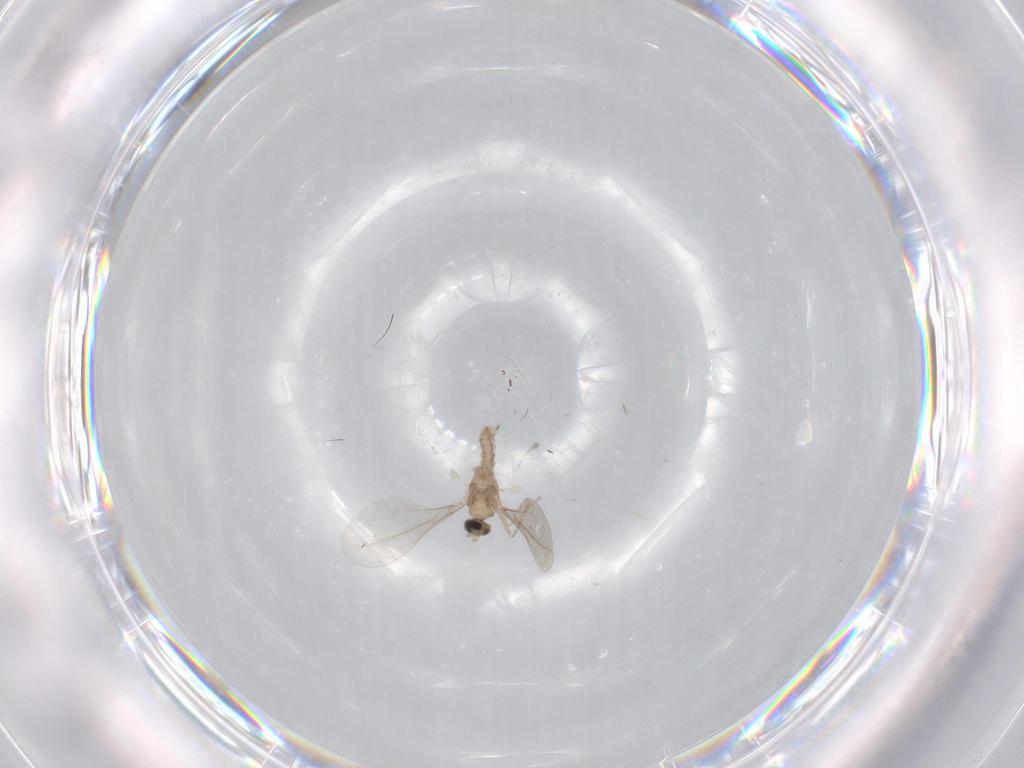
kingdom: Animalia
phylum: Arthropoda
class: Insecta
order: Diptera
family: Cecidomyiidae
